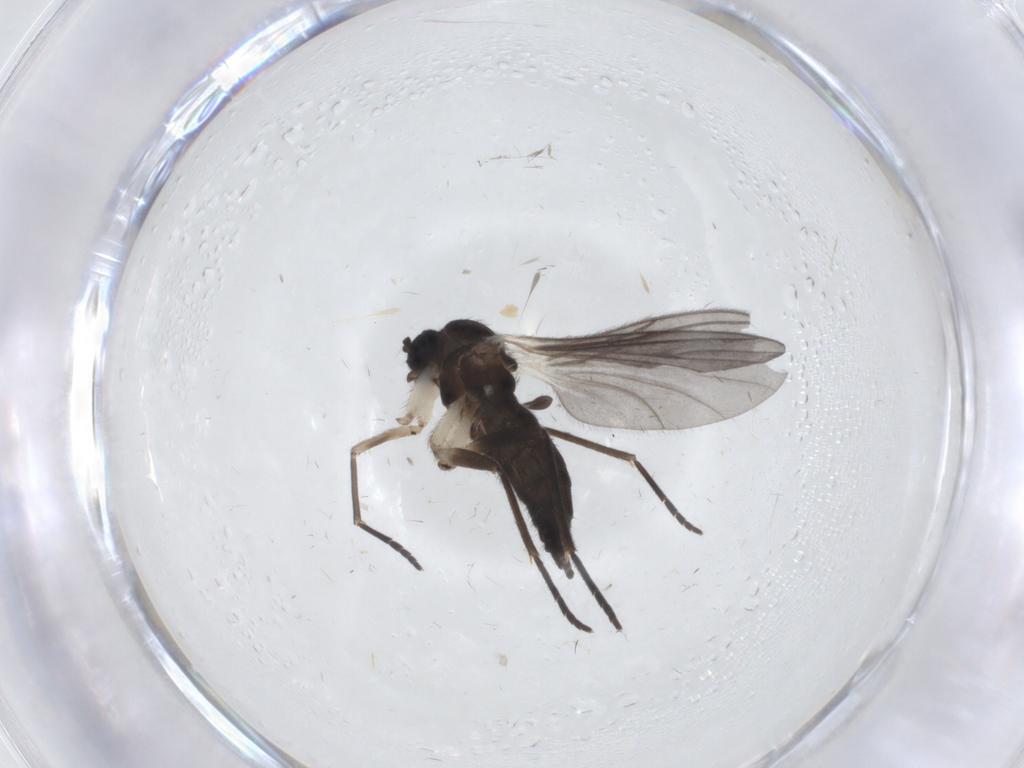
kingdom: Animalia
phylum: Arthropoda
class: Insecta
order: Diptera
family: Sciaridae
